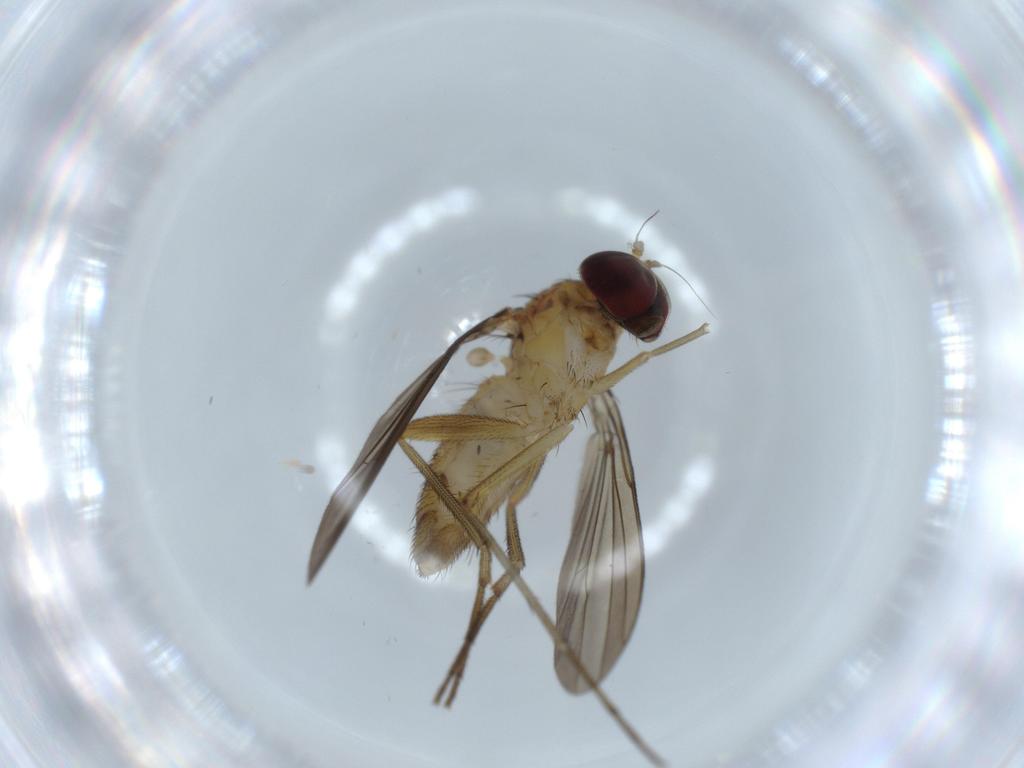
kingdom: Animalia
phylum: Arthropoda
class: Insecta
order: Diptera
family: Dolichopodidae
